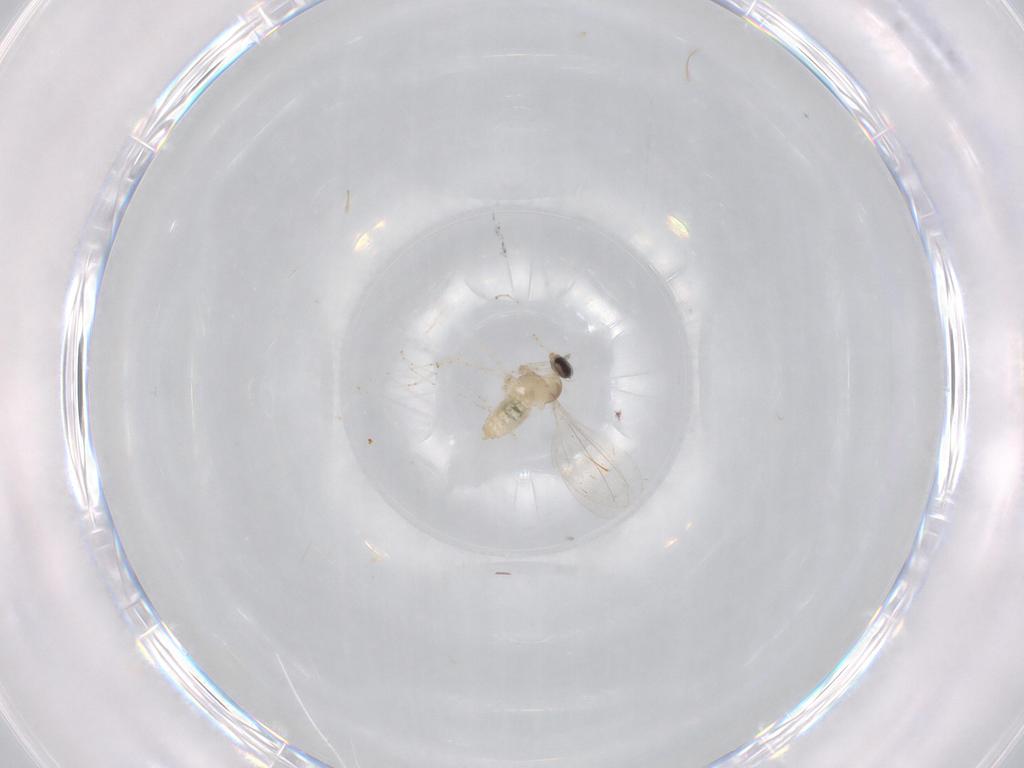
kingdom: Animalia
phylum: Arthropoda
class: Insecta
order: Diptera
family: Cecidomyiidae
